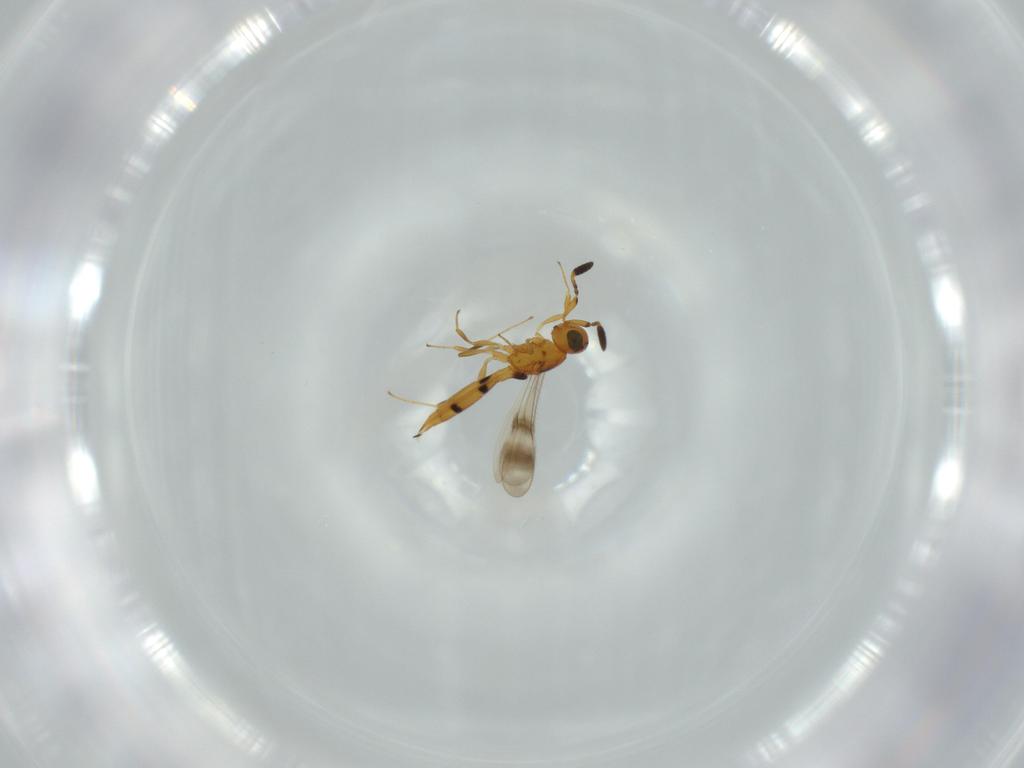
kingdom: Animalia
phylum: Arthropoda
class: Insecta
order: Hymenoptera
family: Scelionidae
